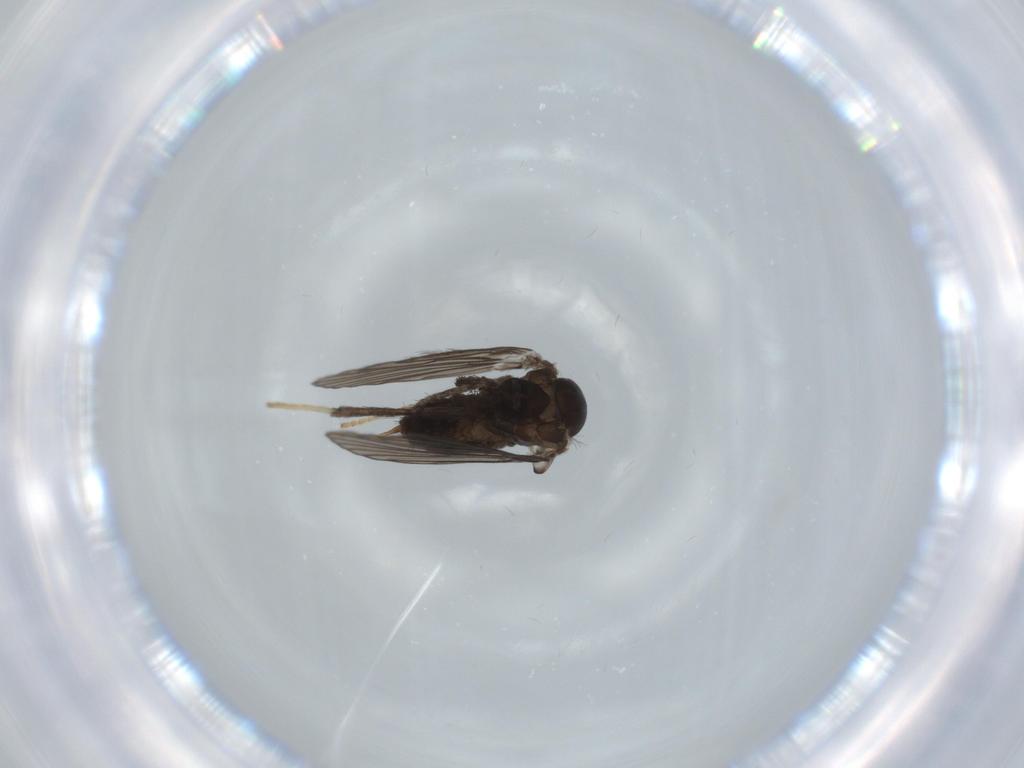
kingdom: Animalia
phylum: Arthropoda
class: Insecta
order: Diptera
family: Psychodidae
